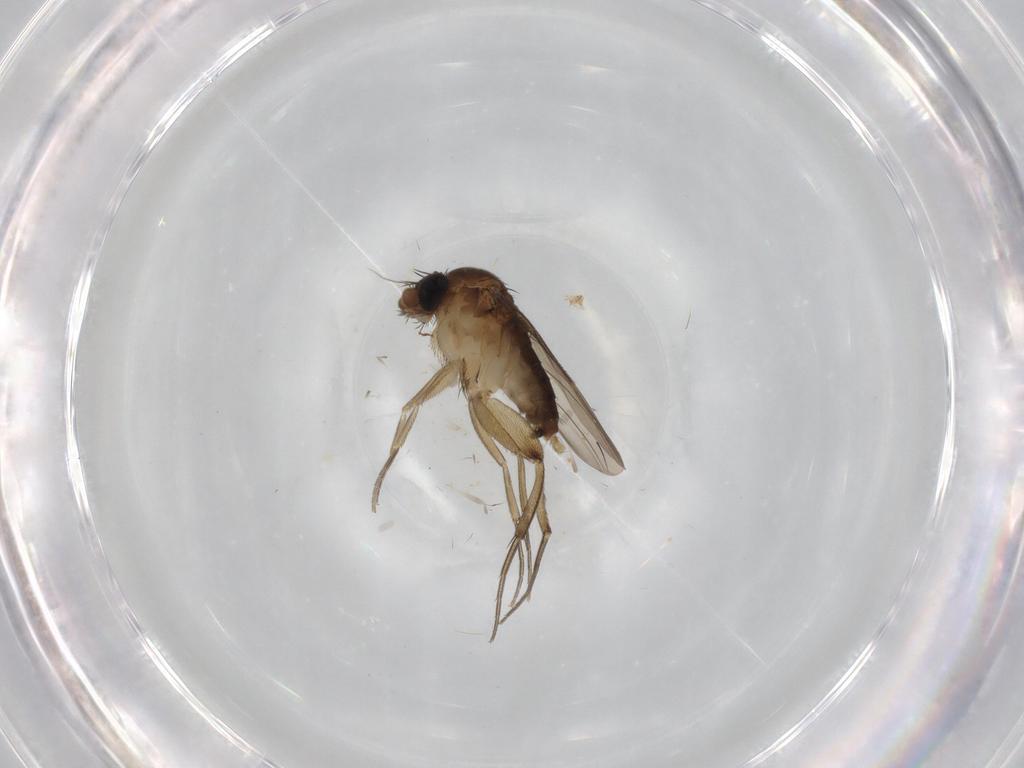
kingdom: Animalia
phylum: Arthropoda
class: Insecta
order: Diptera
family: Phoridae
